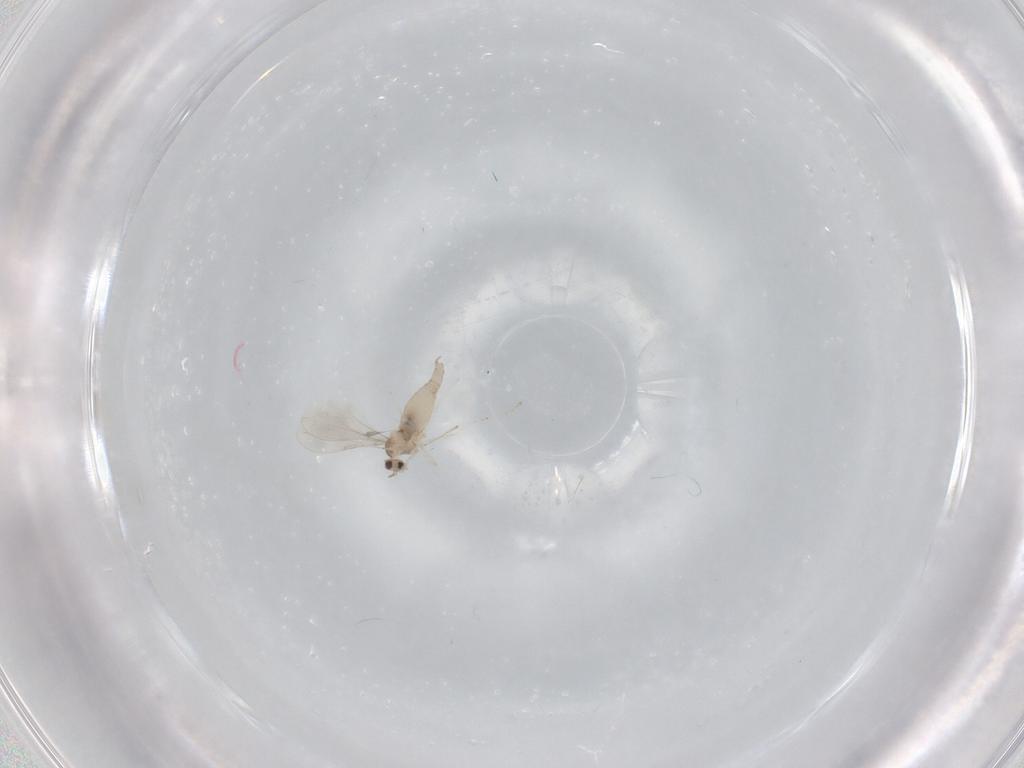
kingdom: Animalia
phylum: Arthropoda
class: Insecta
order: Diptera
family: Cecidomyiidae
